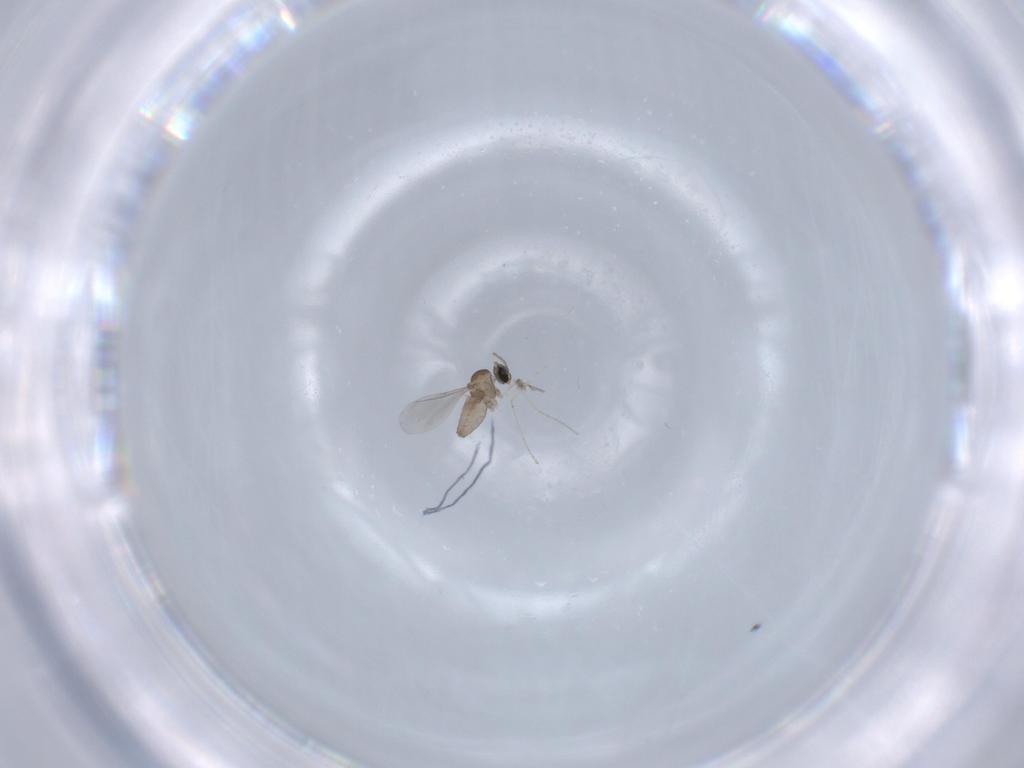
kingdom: Animalia
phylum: Arthropoda
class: Insecta
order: Diptera
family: Cecidomyiidae
